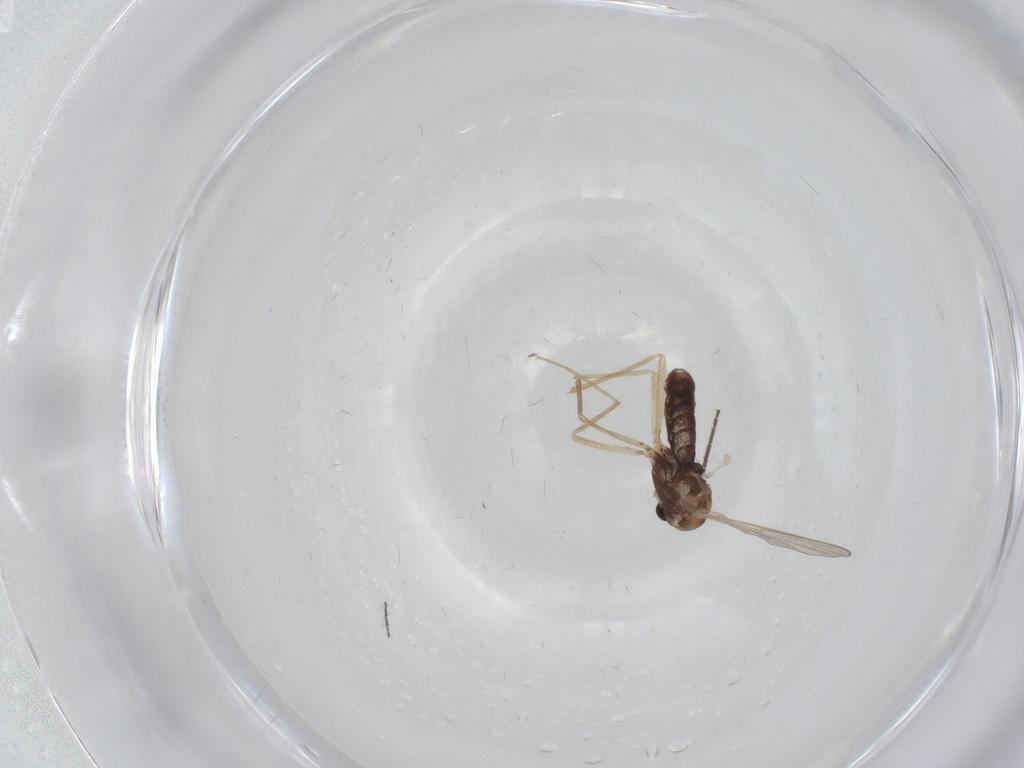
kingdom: Animalia
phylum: Arthropoda
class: Insecta
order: Diptera
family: Chironomidae
